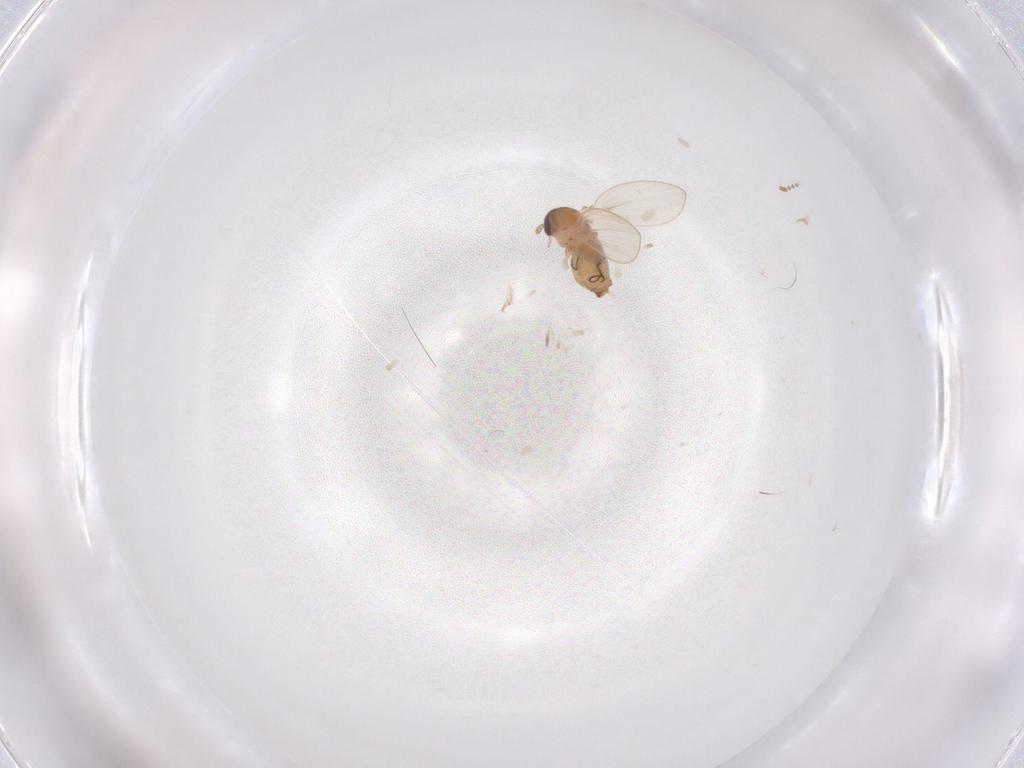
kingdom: Animalia
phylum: Arthropoda
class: Insecta
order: Diptera
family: Psychodidae
